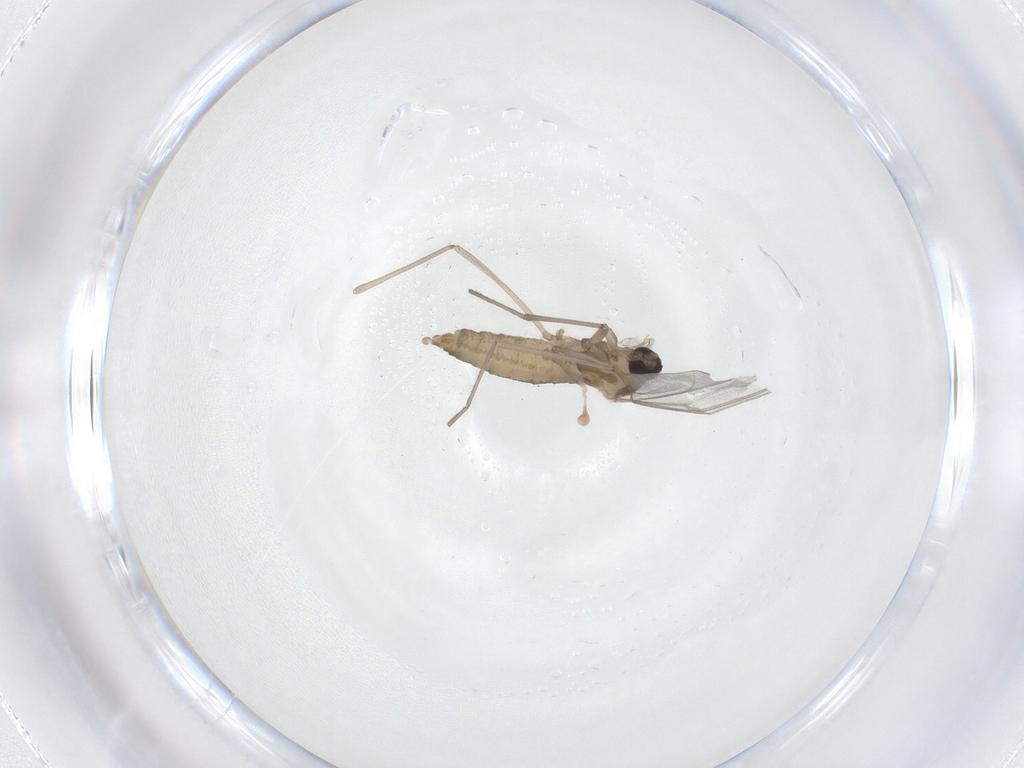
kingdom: Animalia
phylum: Arthropoda
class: Insecta
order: Diptera
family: Cecidomyiidae
